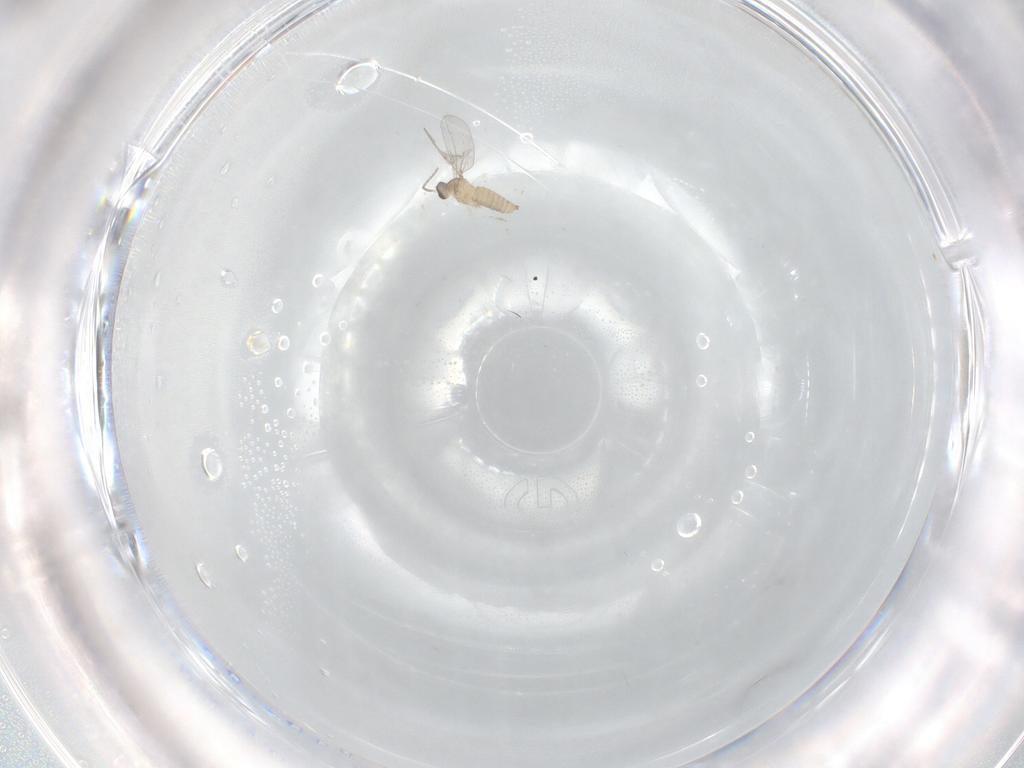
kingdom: Animalia
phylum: Arthropoda
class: Insecta
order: Diptera
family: Cecidomyiidae
